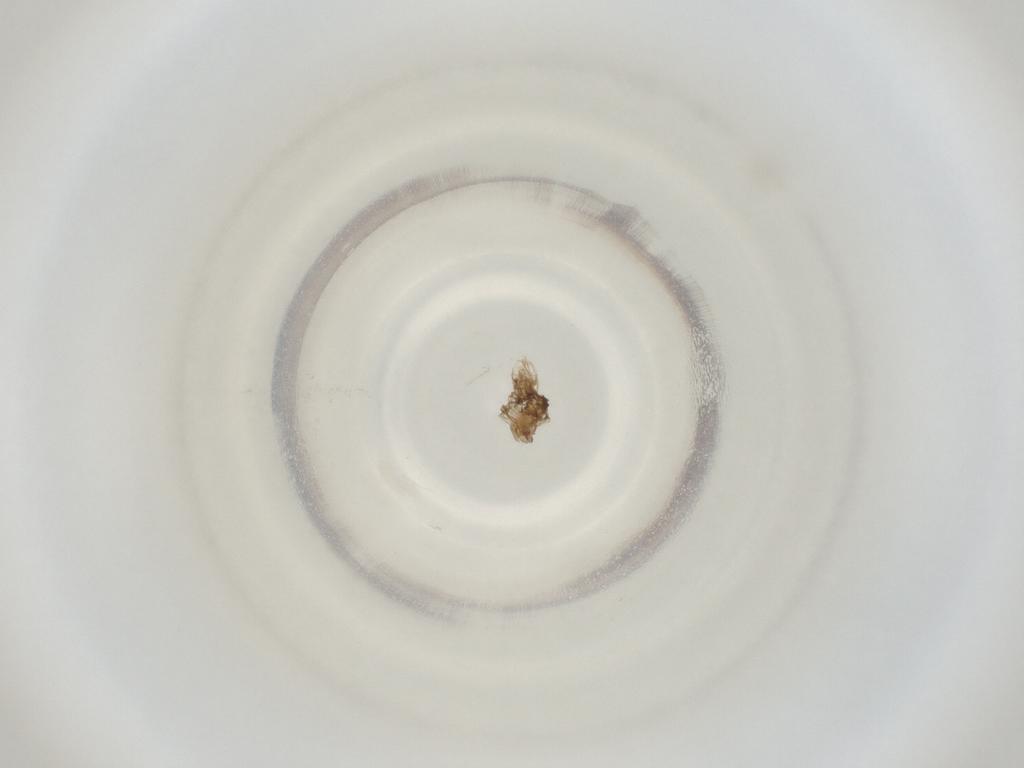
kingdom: Animalia
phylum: Arthropoda
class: Insecta
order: Diptera
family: Cecidomyiidae
